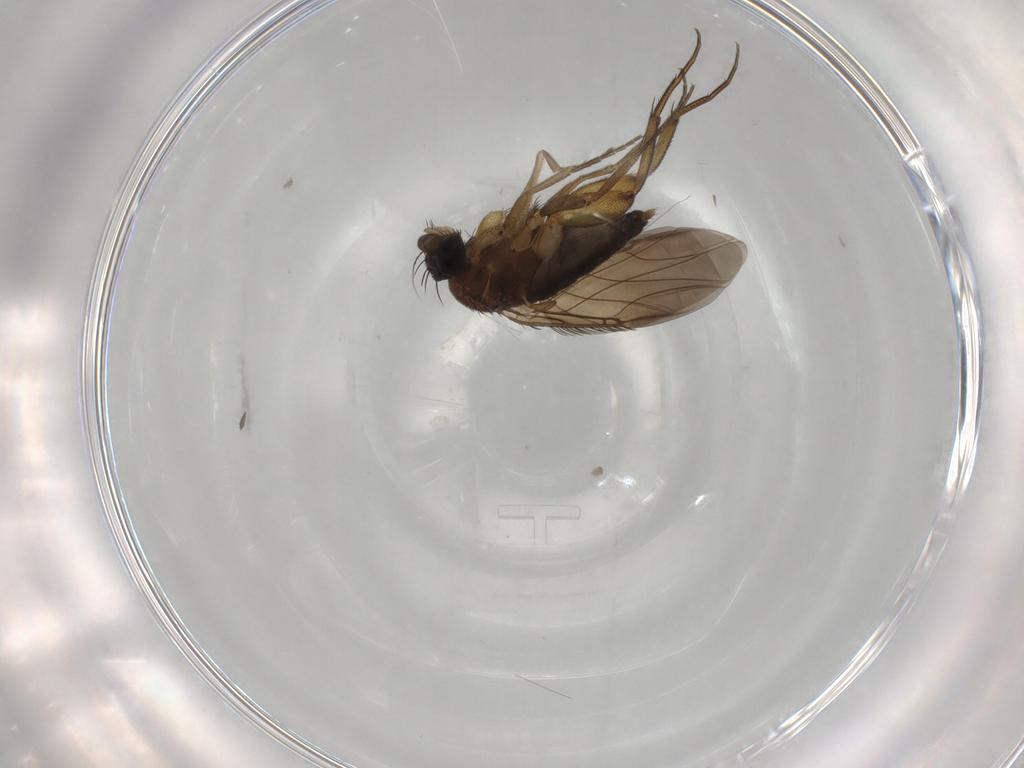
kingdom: Animalia
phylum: Arthropoda
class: Insecta
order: Diptera
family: Phoridae
